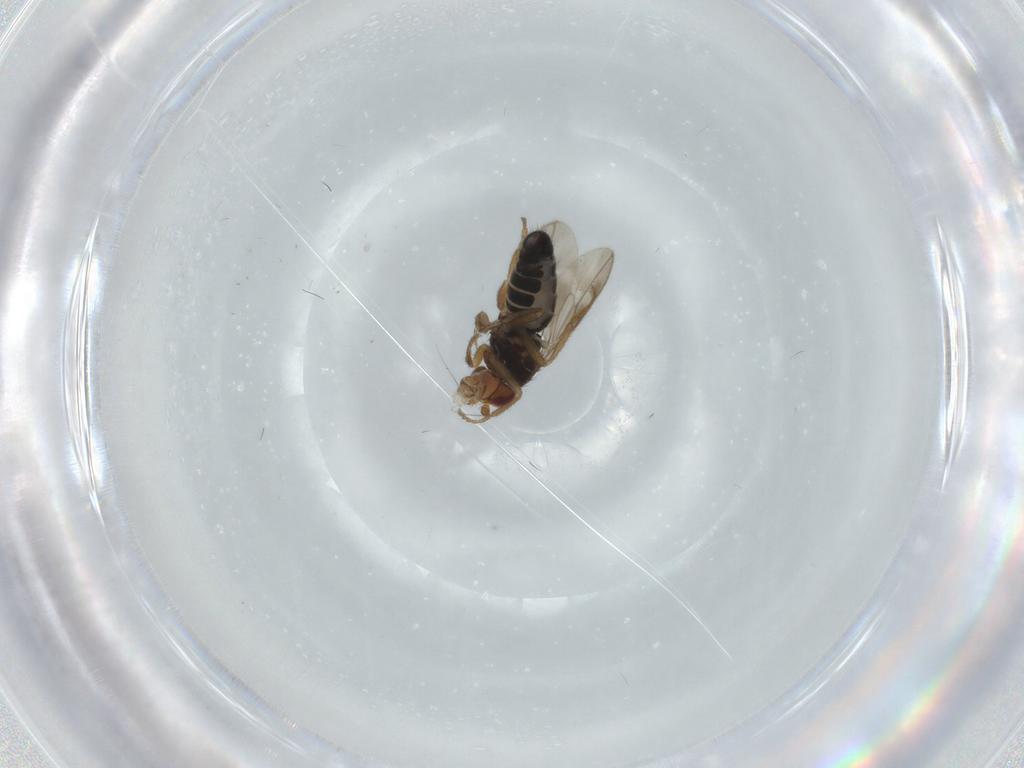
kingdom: Animalia
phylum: Arthropoda
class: Insecta
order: Diptera
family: Sphaeroceridae
